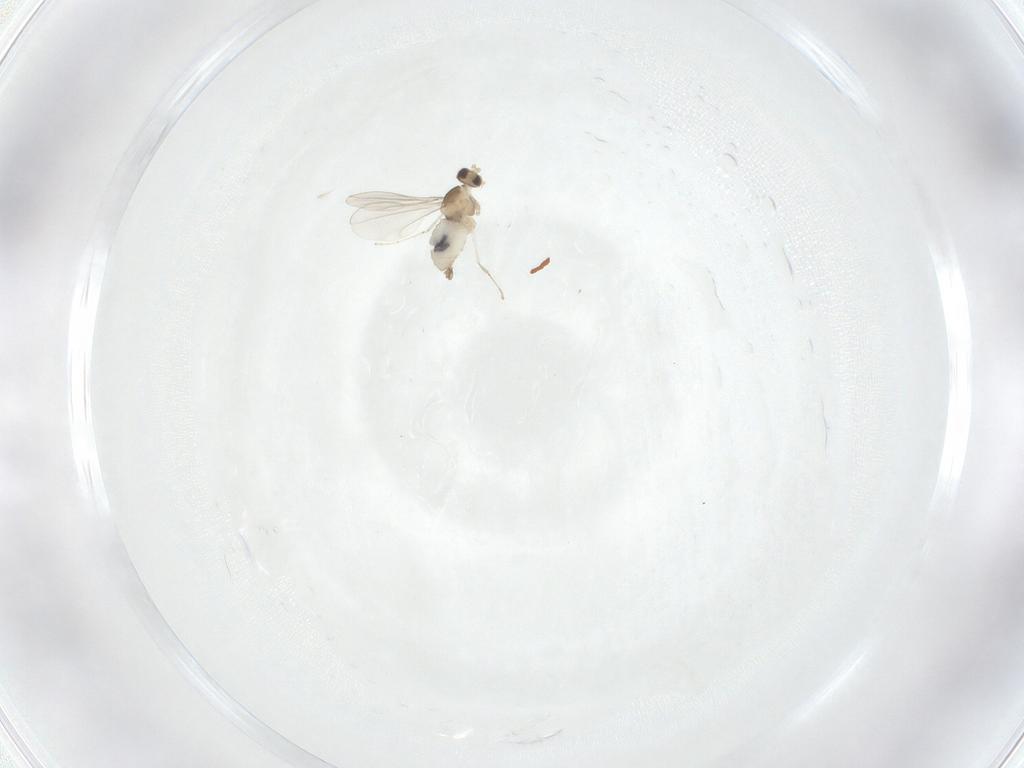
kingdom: Animalia
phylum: Arthropoda
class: Insecta
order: Diptera
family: Cecidomyiidae
